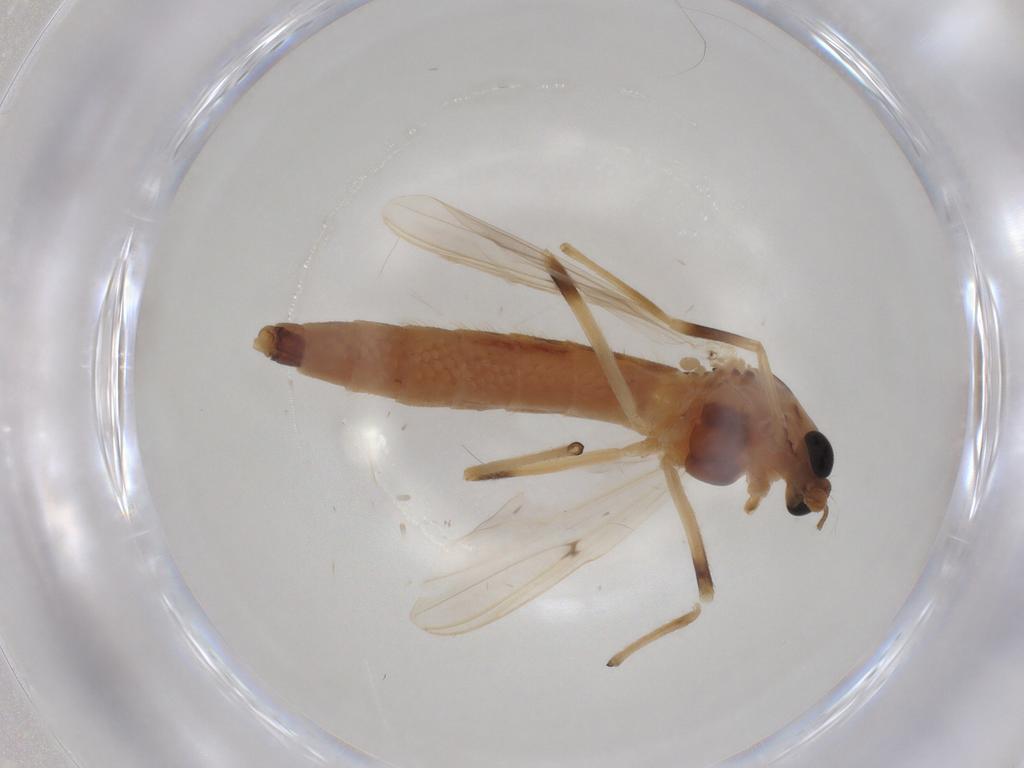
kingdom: Animalia
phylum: Arthropoda
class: Insecta
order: Diptera
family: Chironomidae
